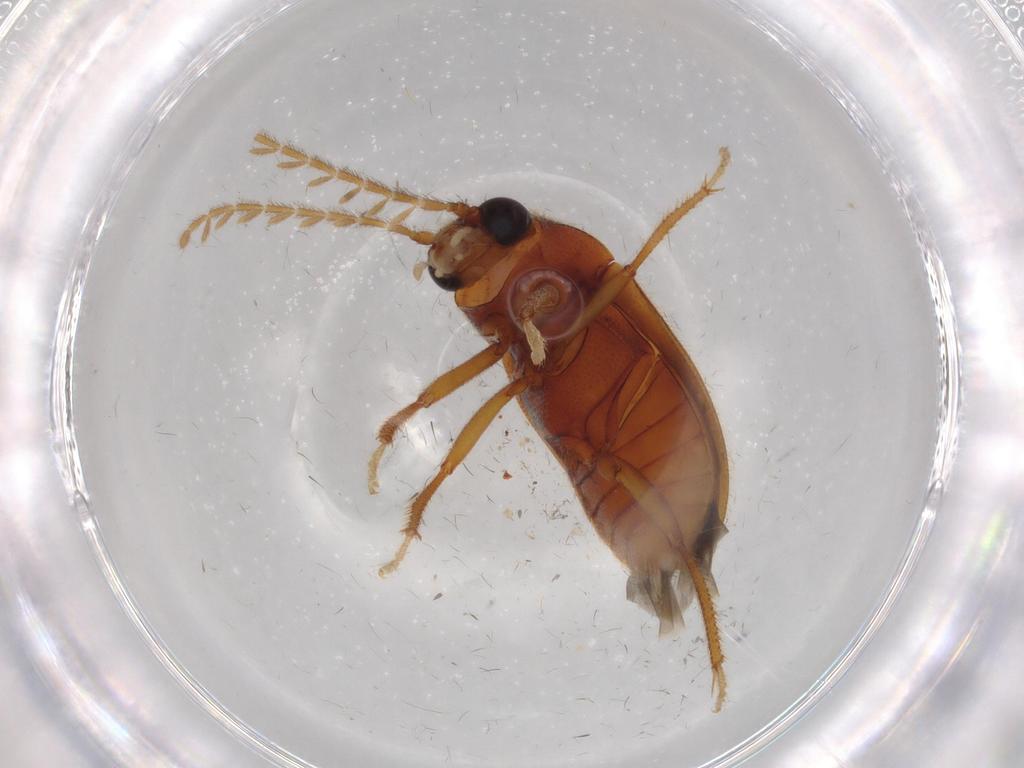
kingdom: Animalia
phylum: Arthropoda
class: Insecta
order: Coleoptera
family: Ptilodactylidae
